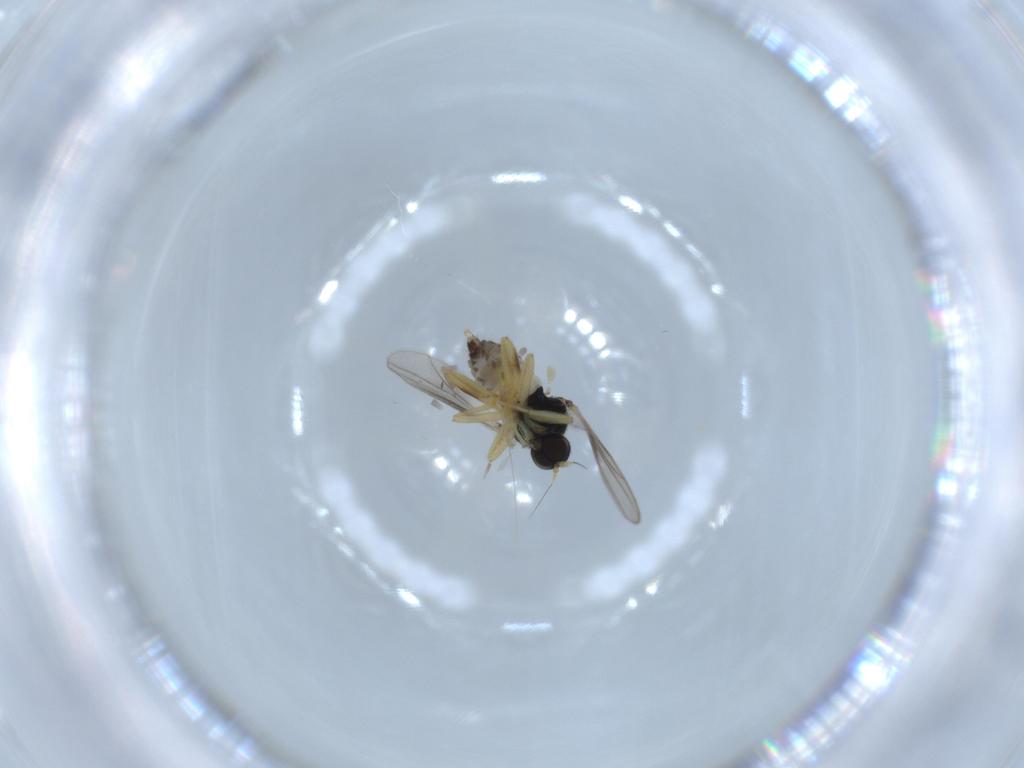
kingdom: Animalia
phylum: Arthropoda
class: Insecta
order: Diptera
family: Hybotidae
